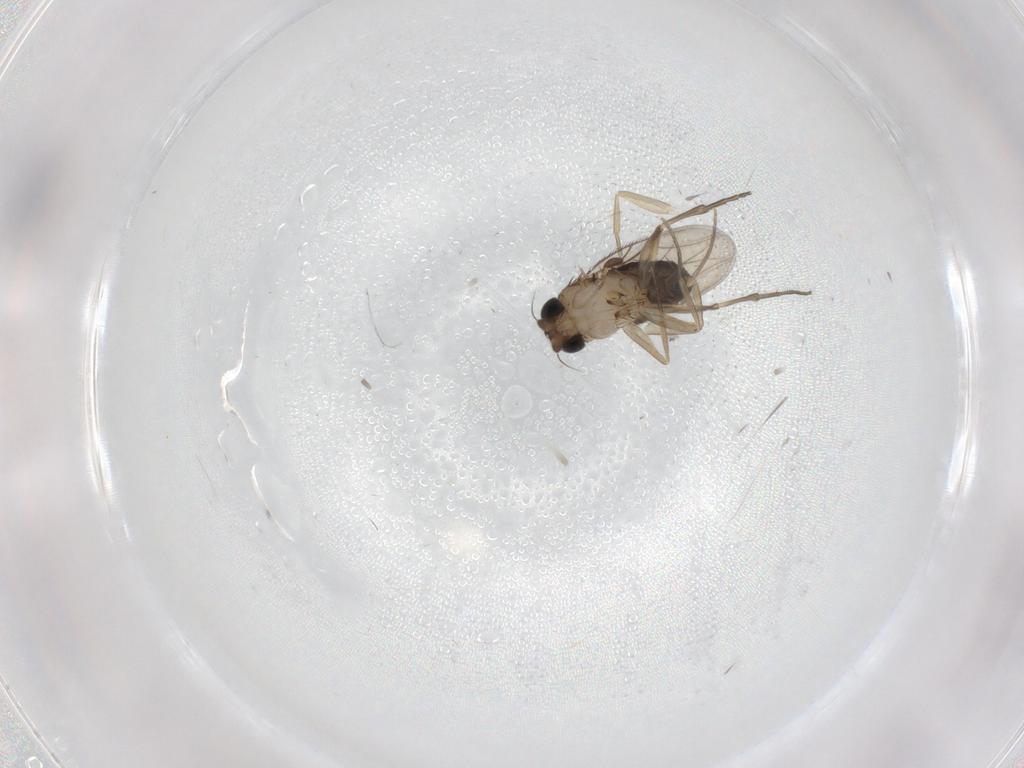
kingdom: Animalia
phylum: Arthropoda
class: Insecta
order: Diptera
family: Phoridae
